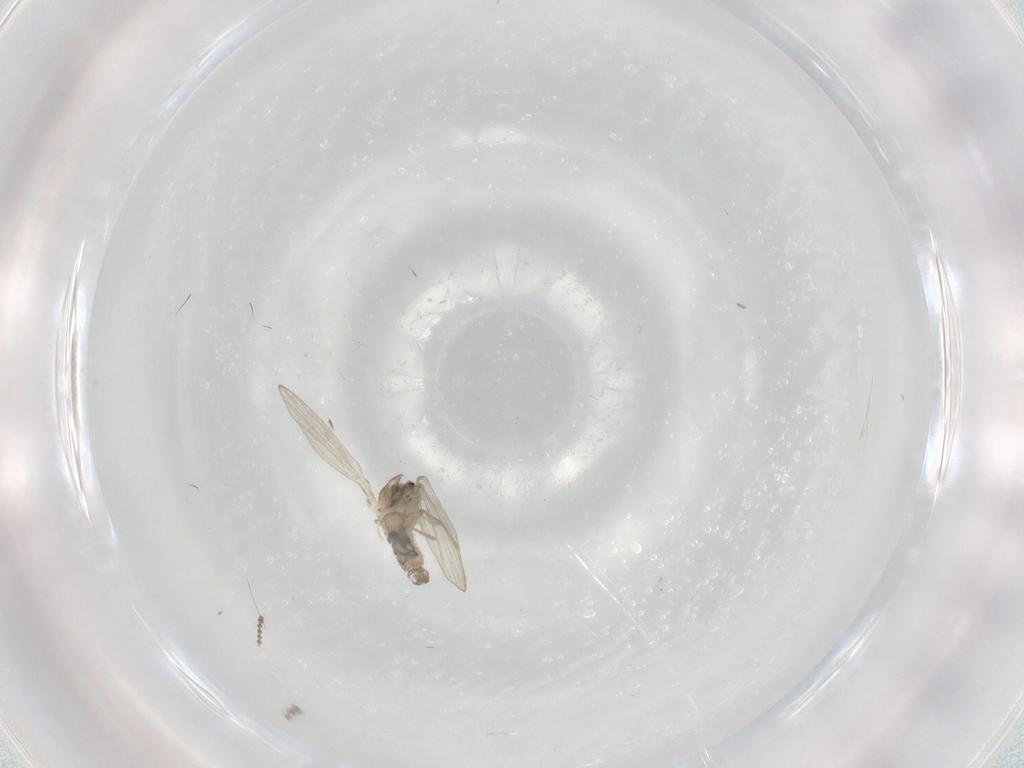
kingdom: Animalia
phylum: Arthropoda
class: Insecta
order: Diptera
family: Psychodidae
